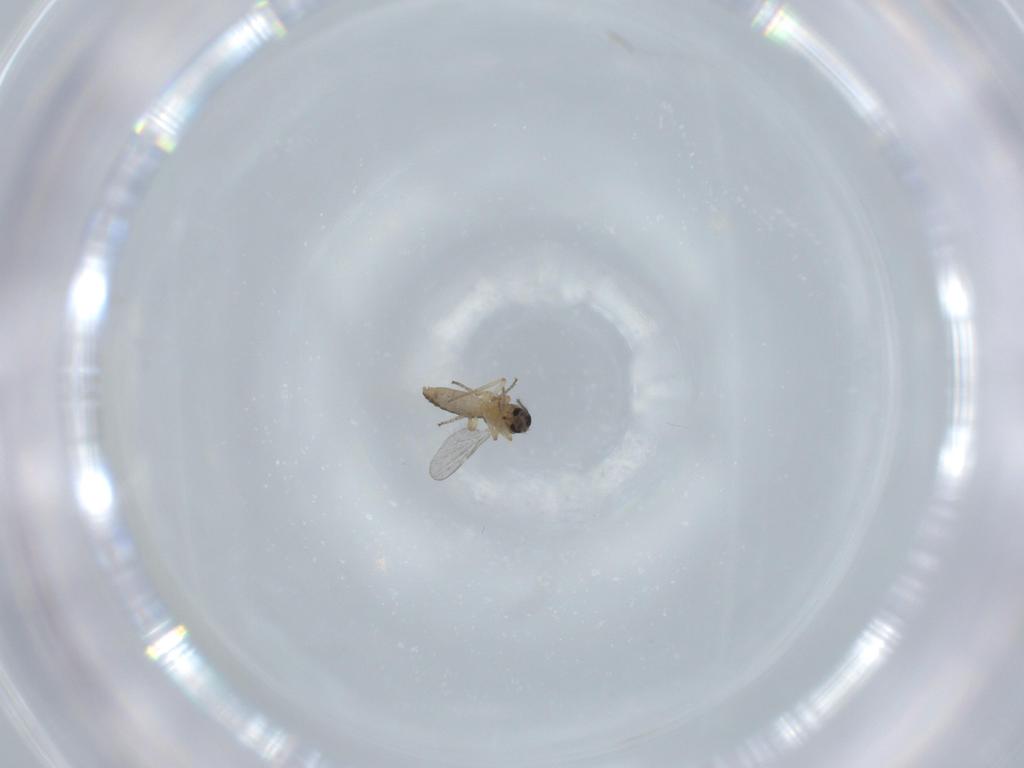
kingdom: Animalia
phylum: Arthropoda
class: Insecta
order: Diptera
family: Ceratopogonidae
